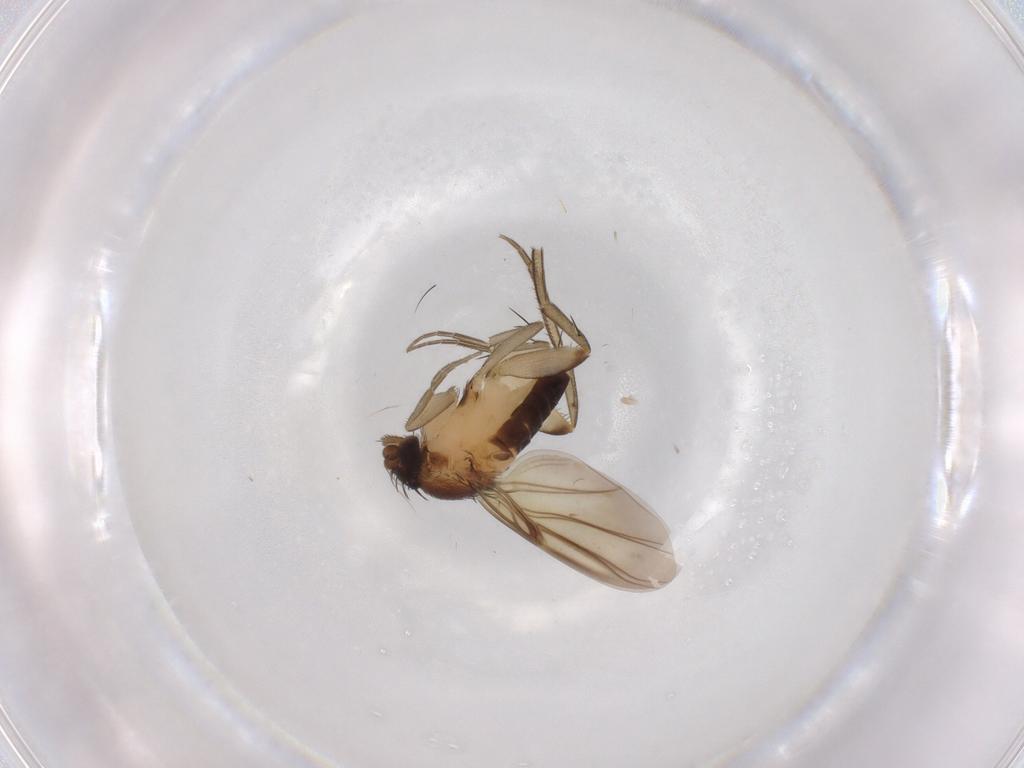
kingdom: Animalia
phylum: Arthropoda
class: Insecta
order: Diptera
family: Phoridae
